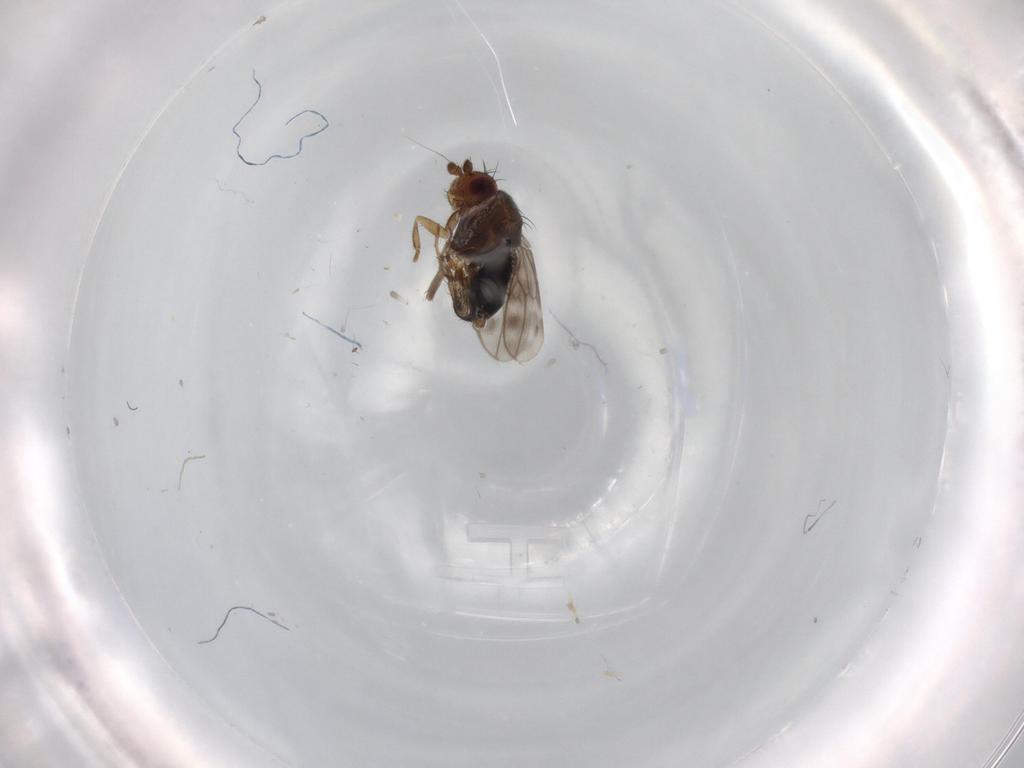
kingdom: Animalia
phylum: Arthropoda
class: Insecta
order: Diptera
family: Sphaeroceridae
